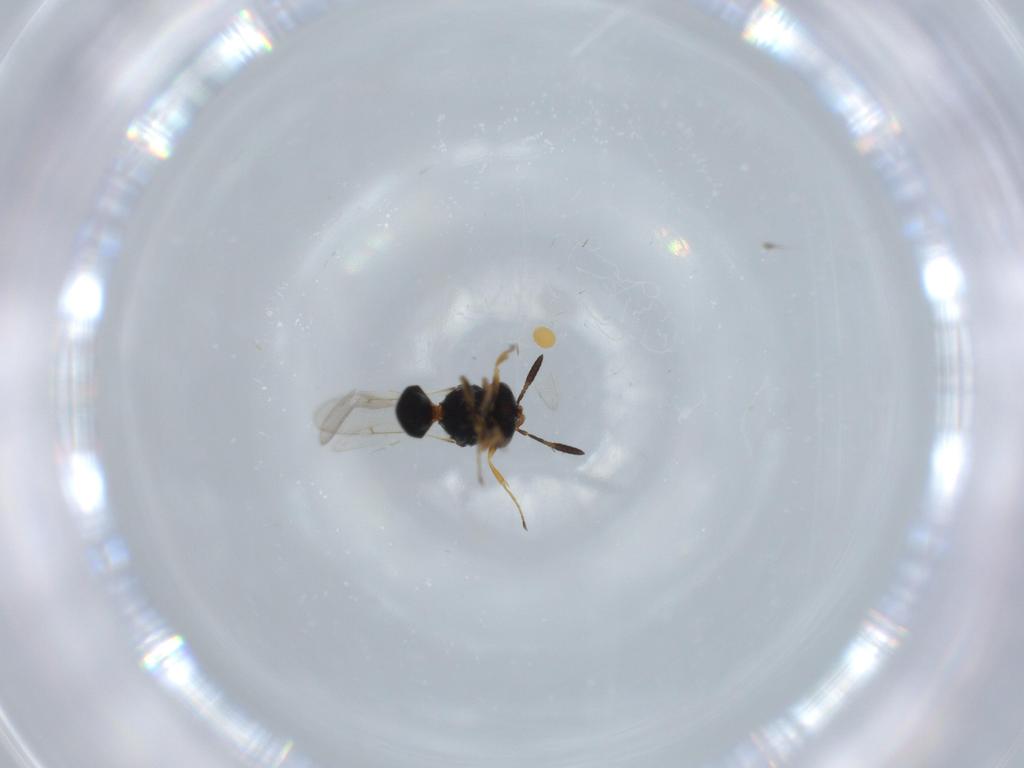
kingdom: Animalia
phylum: Arthropoda
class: Insecta
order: Hymenoptera
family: Scelionidae
